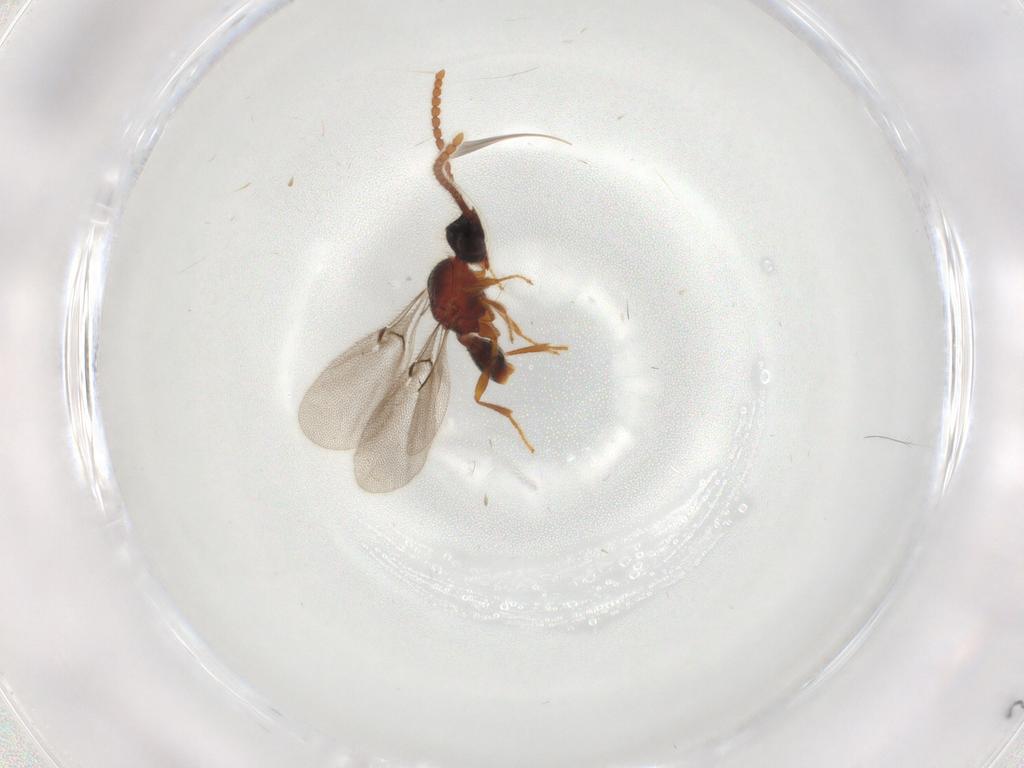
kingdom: Animalia
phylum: Arthropoda
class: Insecta
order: Hymenoptera
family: Diapriidae
